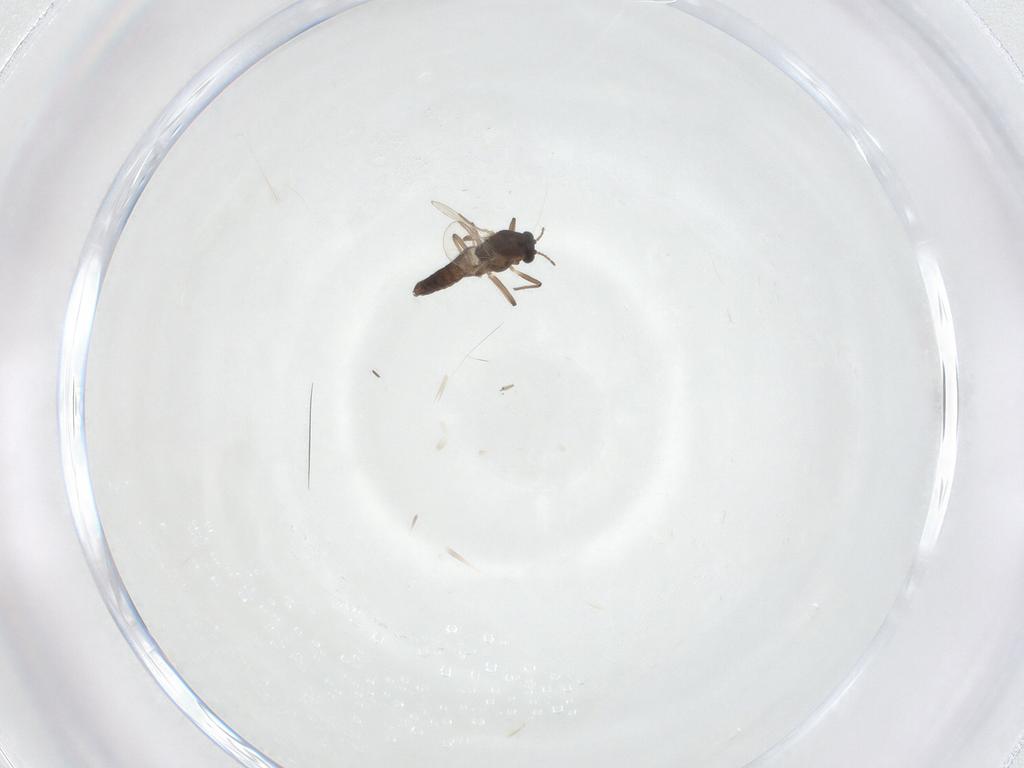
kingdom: Animalia
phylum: Arthropoda
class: Insecta
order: Diptera
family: Chironomidae
